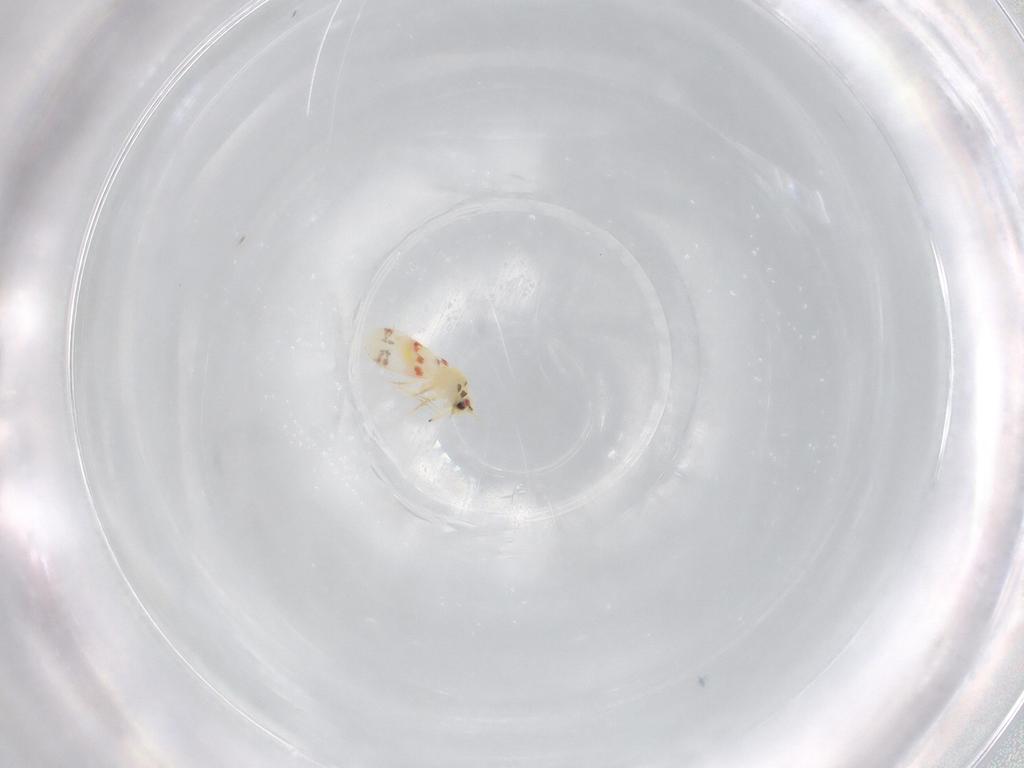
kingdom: Animalia
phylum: Arthropoda
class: Insecta
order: Hemiptera
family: Aleyrodidae
